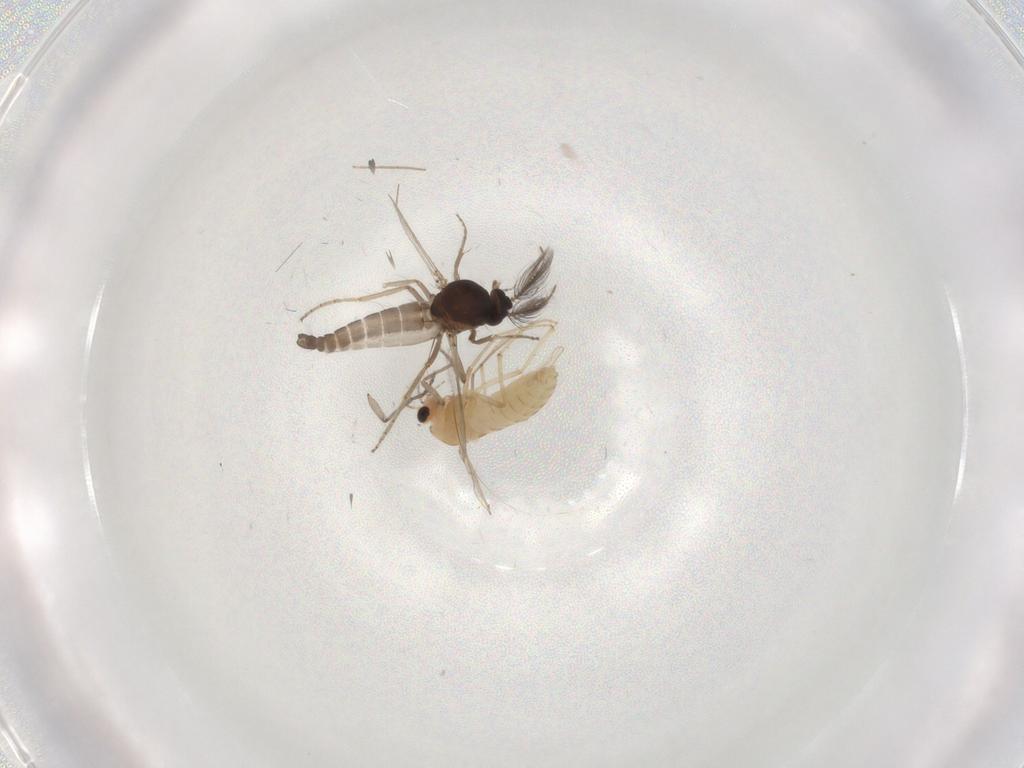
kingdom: Animalia
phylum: Arthropoda
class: Insecta
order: Diptera
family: Chironomidae
